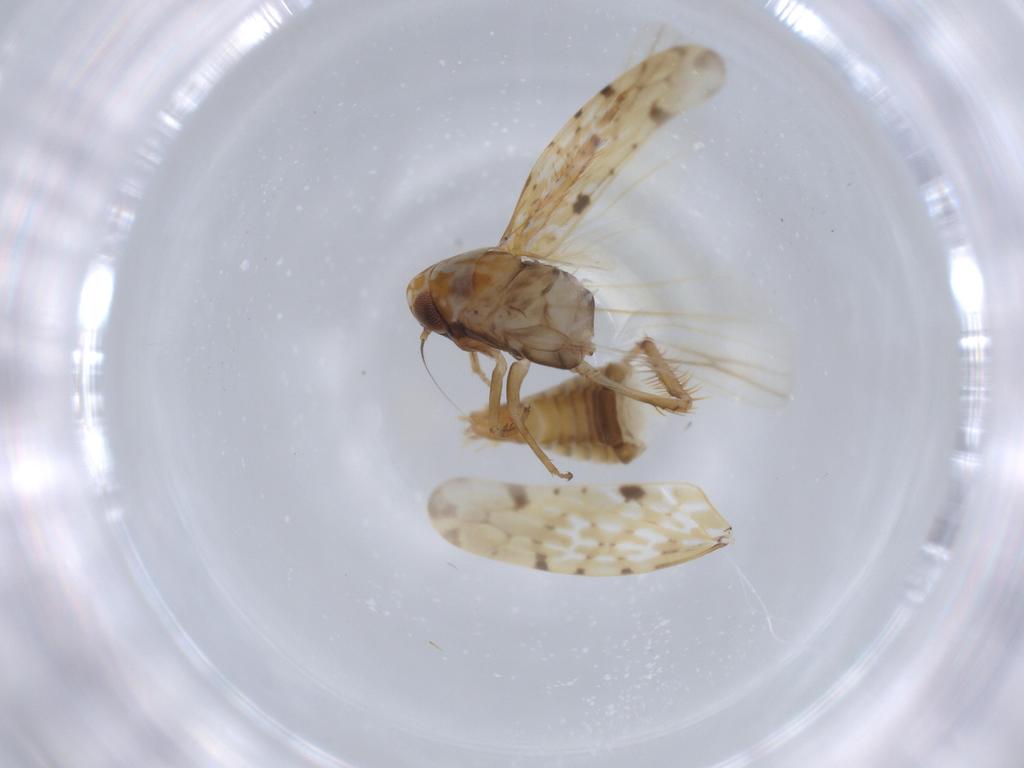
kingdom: Animalia
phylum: Arthropoda
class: Insecta
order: Hemiptera
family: Cicadellidae
